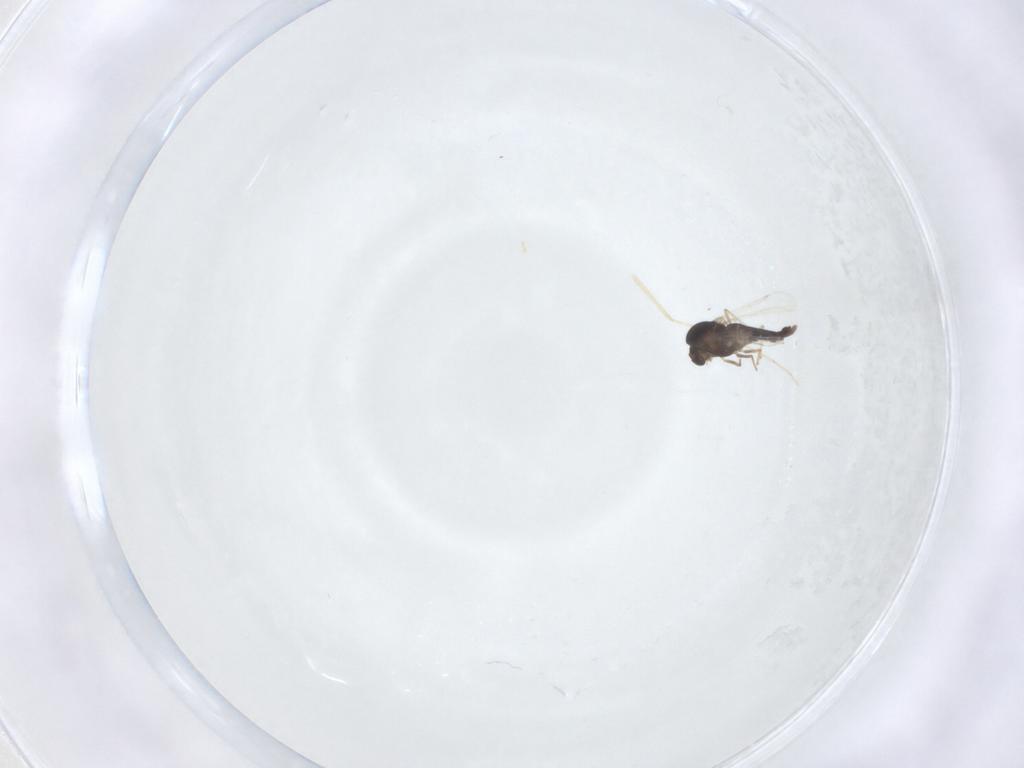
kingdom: Animalia
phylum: Arthropoda
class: Insecta
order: Diptera
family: Chironomidae
